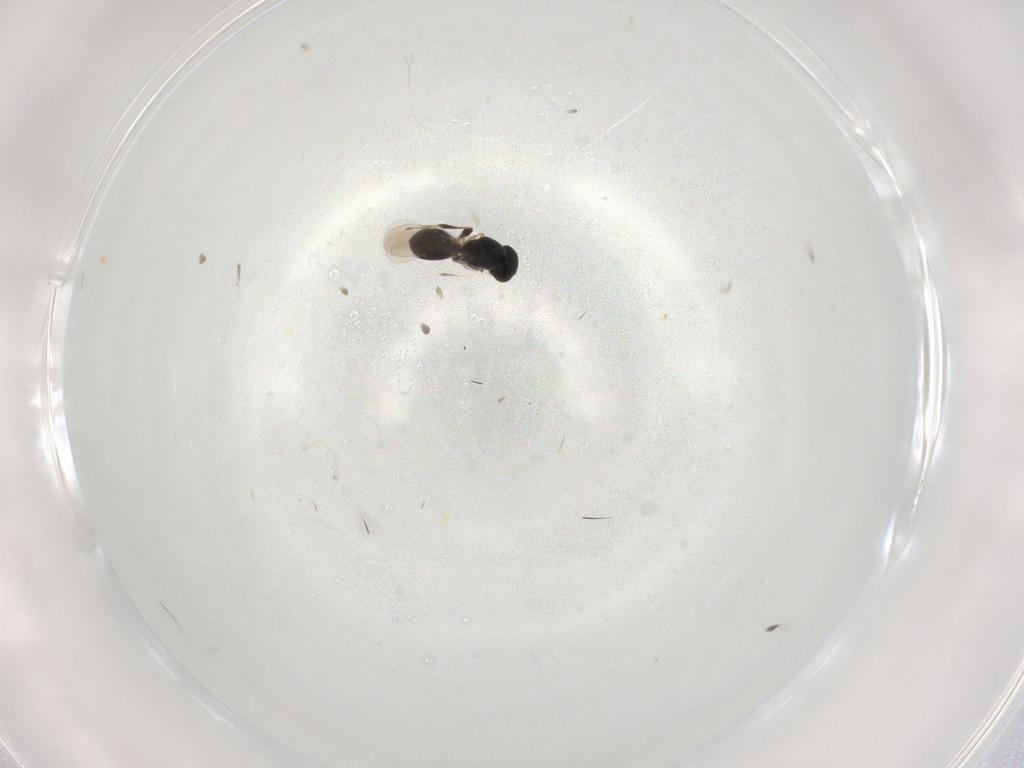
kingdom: Animalia
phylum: Arthropoda
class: Insecta
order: Hymenoptera
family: Platygastridae
